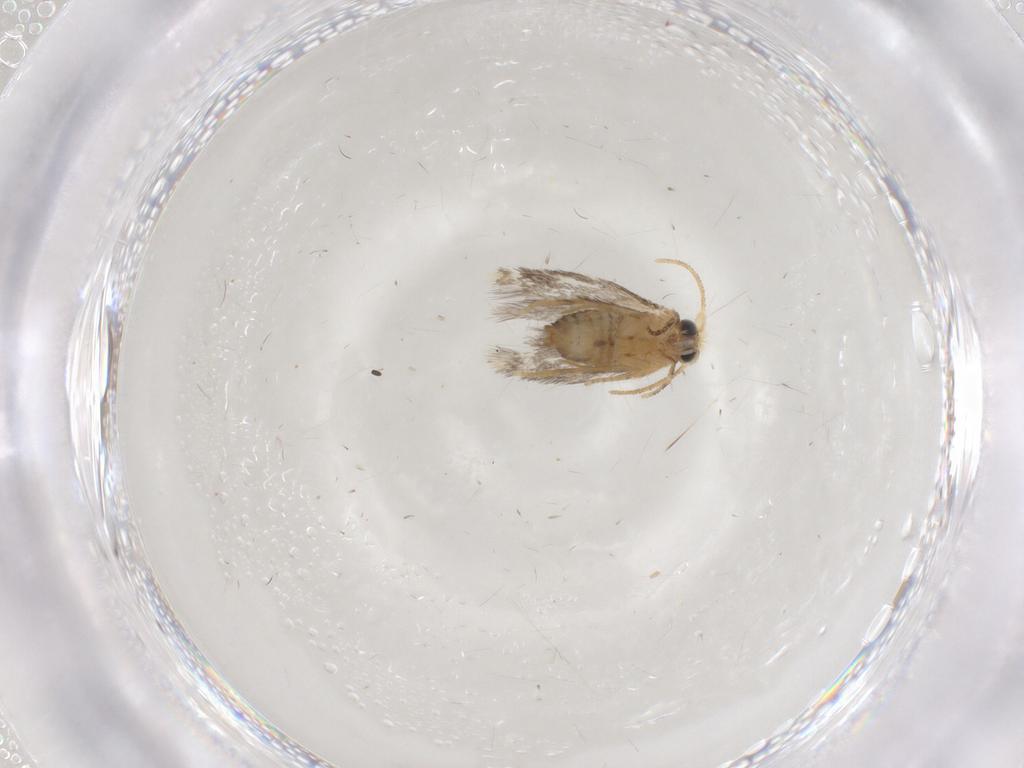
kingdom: Animalia
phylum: Arthropoda
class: Insecta
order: Lepidoptera
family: Nepticulidae
